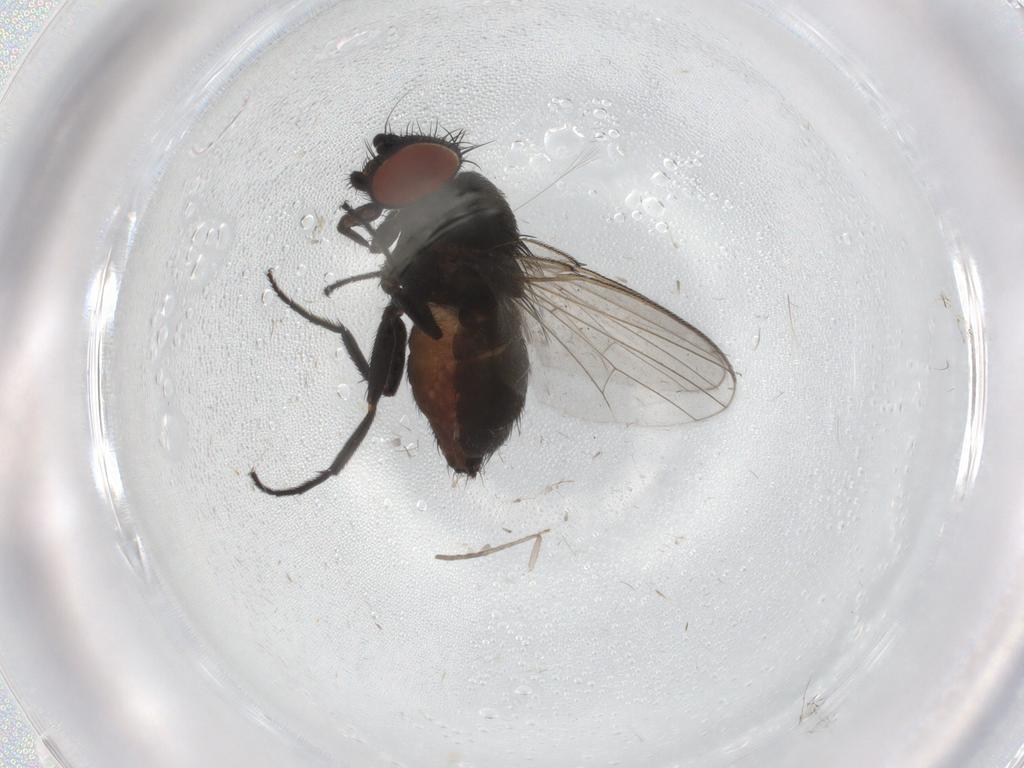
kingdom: Animalia
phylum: Arthropoda
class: Insecta
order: Diptera
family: Milichiidae
